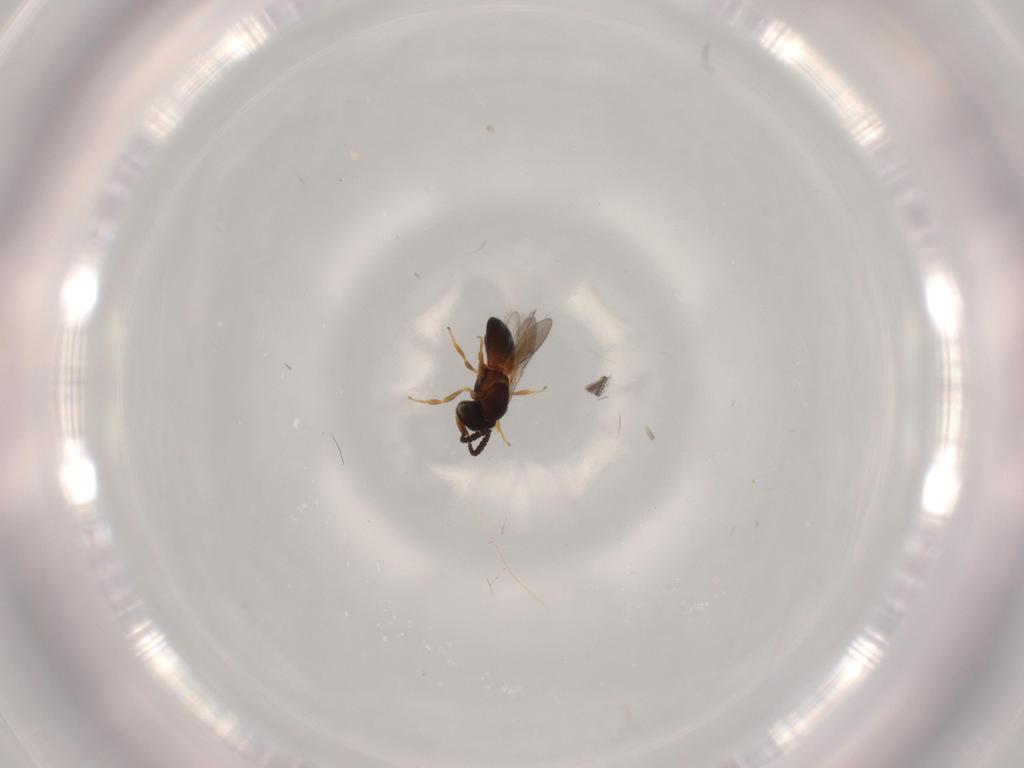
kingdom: Animalia
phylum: Arthropoda
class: Insecta
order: Hymenoptera
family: Scelionidae
